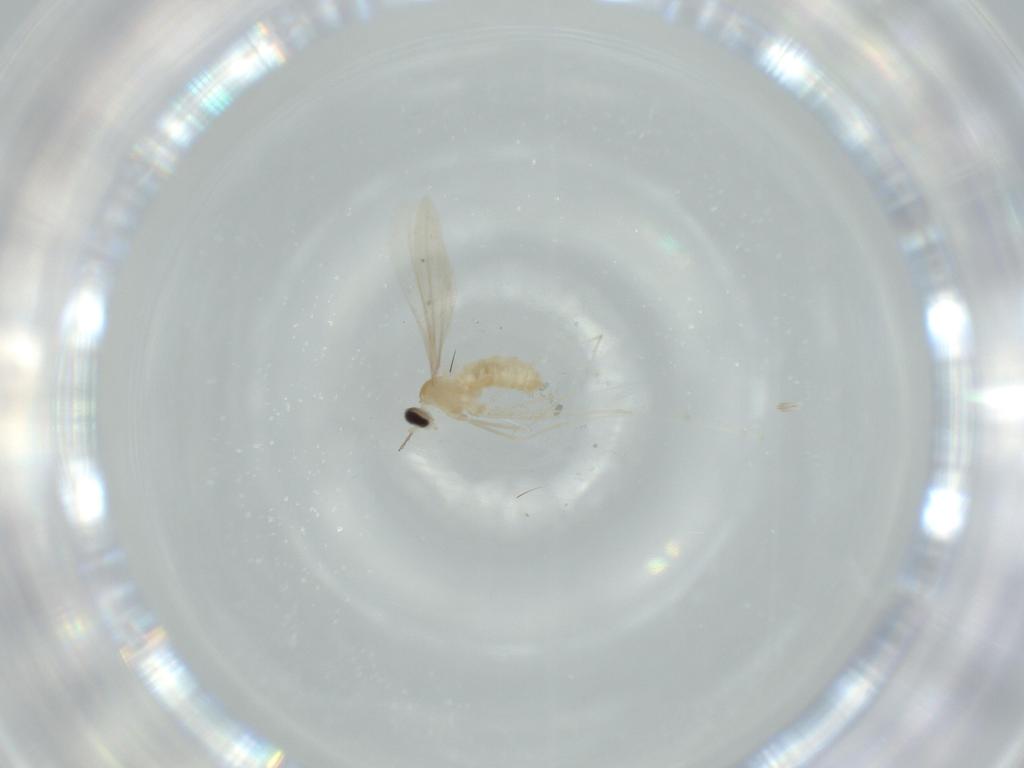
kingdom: Animalia
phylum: Arthropoda
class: Insecta
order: Diptera
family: Cecidomyiidae
